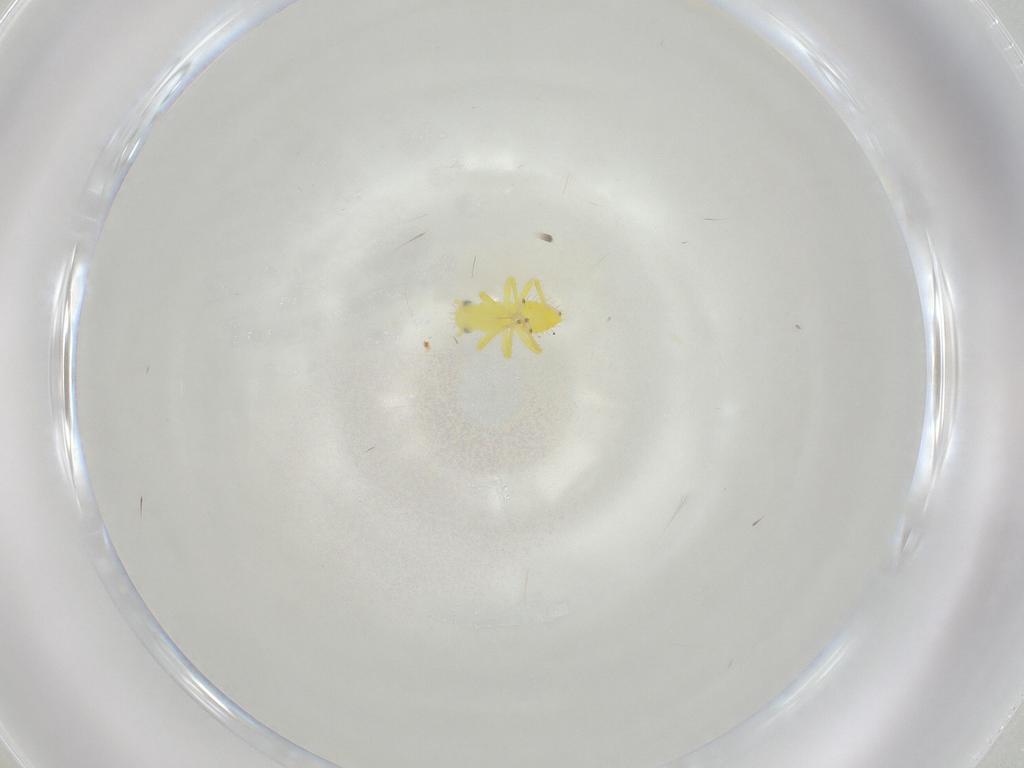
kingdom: Animalia
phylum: Arthropoda
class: Insecta
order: Hemiptera
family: Cicadellidae
